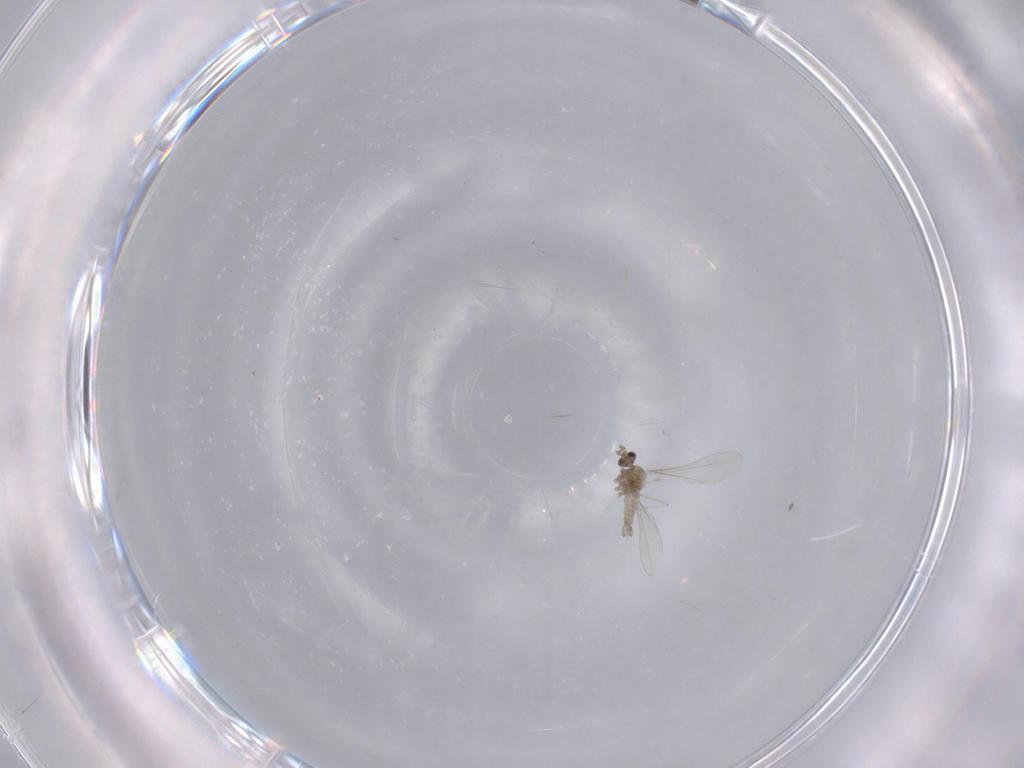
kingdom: Animalia
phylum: Arthropoda
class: Insecta
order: Diptera
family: Cecidomyiidae
